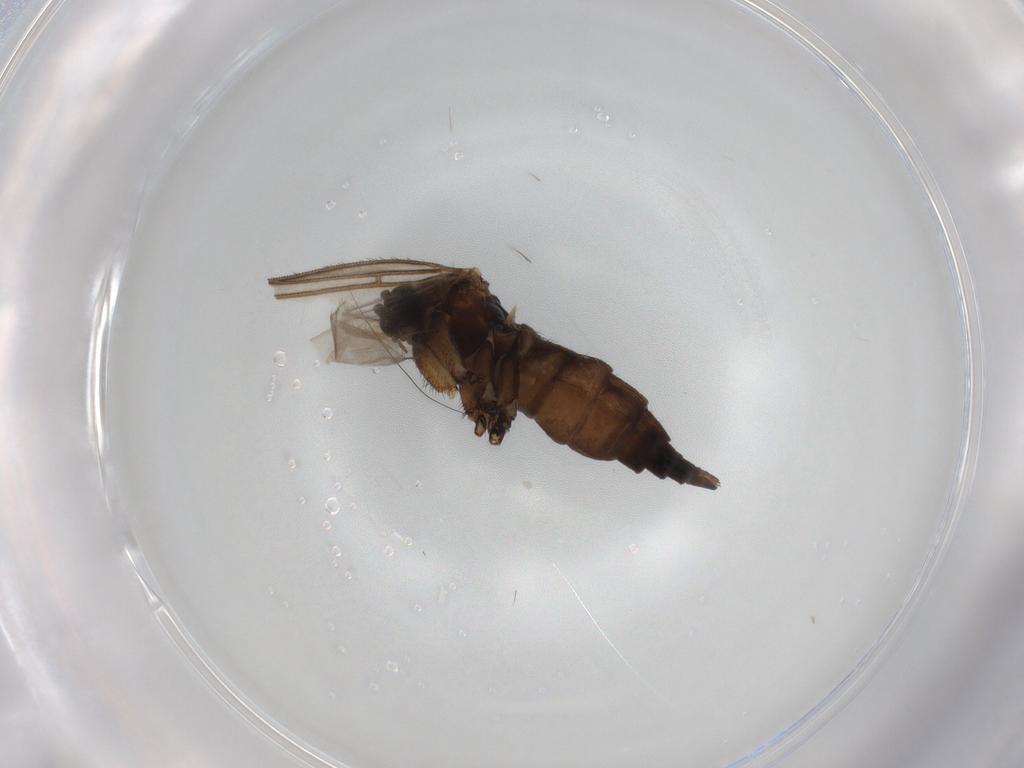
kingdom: Animalia
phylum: Arthropoda
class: Insecta
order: Diptera
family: Sciaridae
